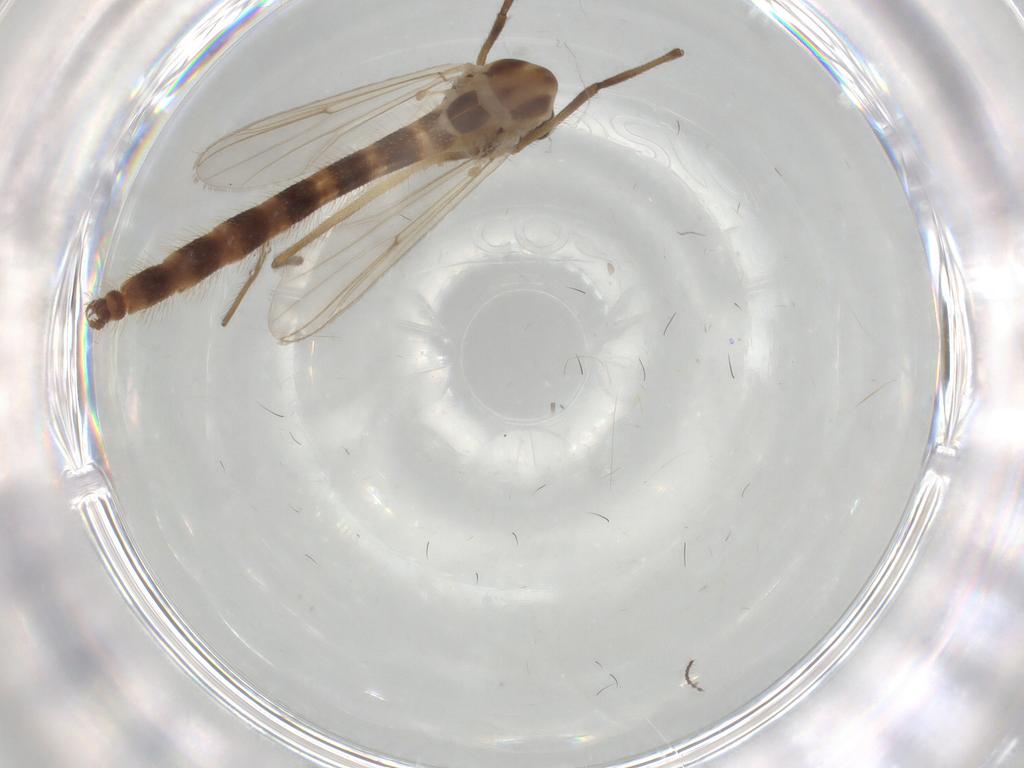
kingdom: Animalia
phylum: Arthropoda
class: Insecta
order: Diptera
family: Chironomidae
